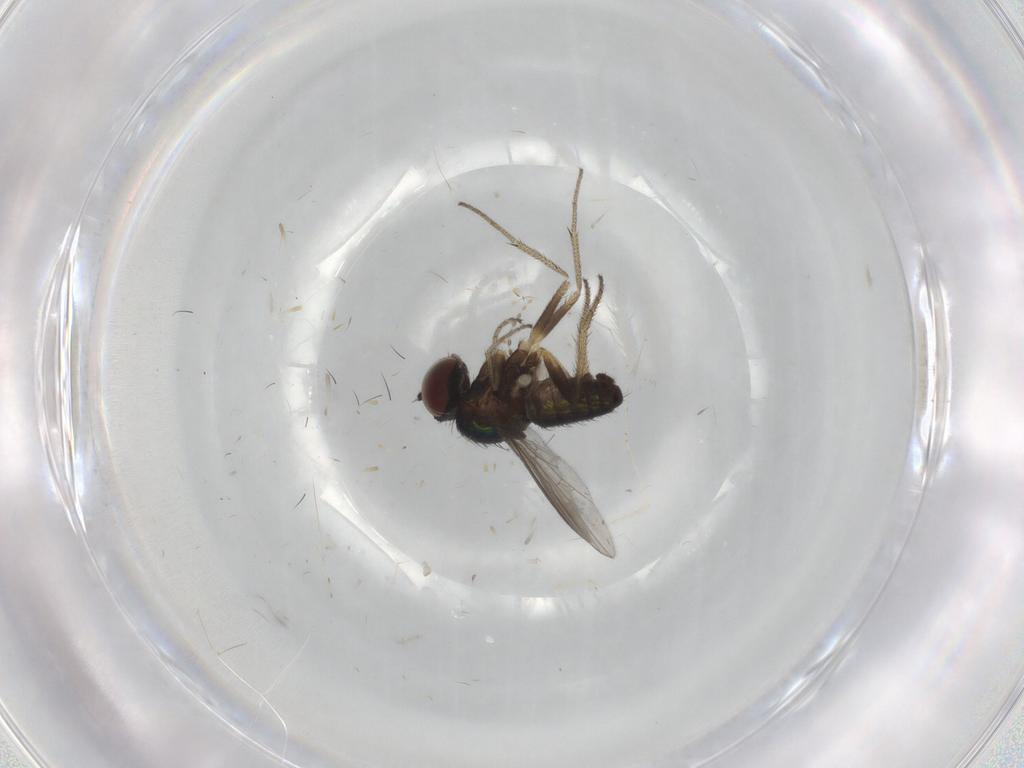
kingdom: Animalia
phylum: Arthropoda
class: Insecta
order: Diptera
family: Dolichopodidae
